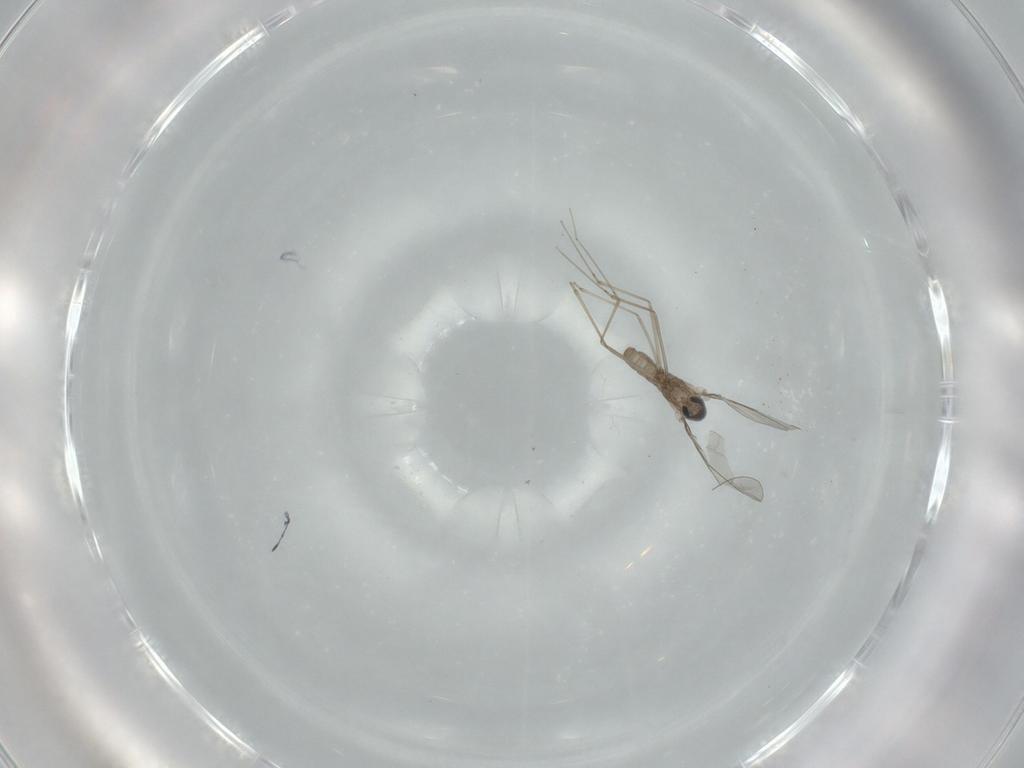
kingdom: Animalia
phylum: Arthropoda
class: Insecta
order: Diptera
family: Cecidomyiidae
